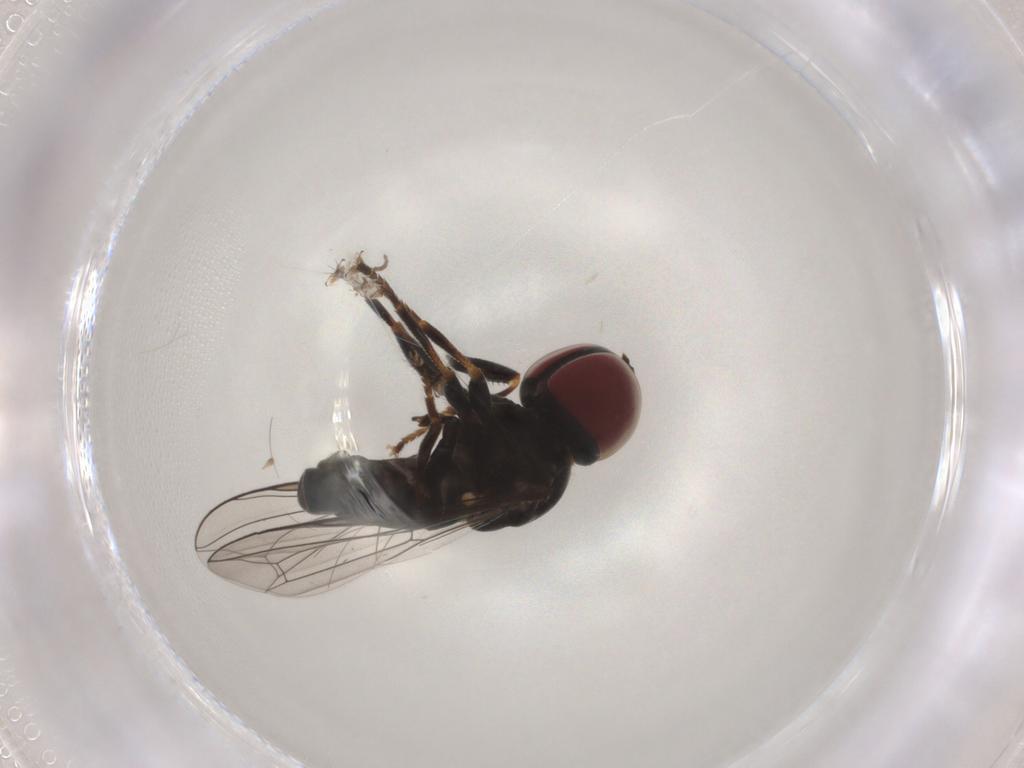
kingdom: Animalia
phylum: Arthropoda
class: Insecta
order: Diptera
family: Pipunculidae
